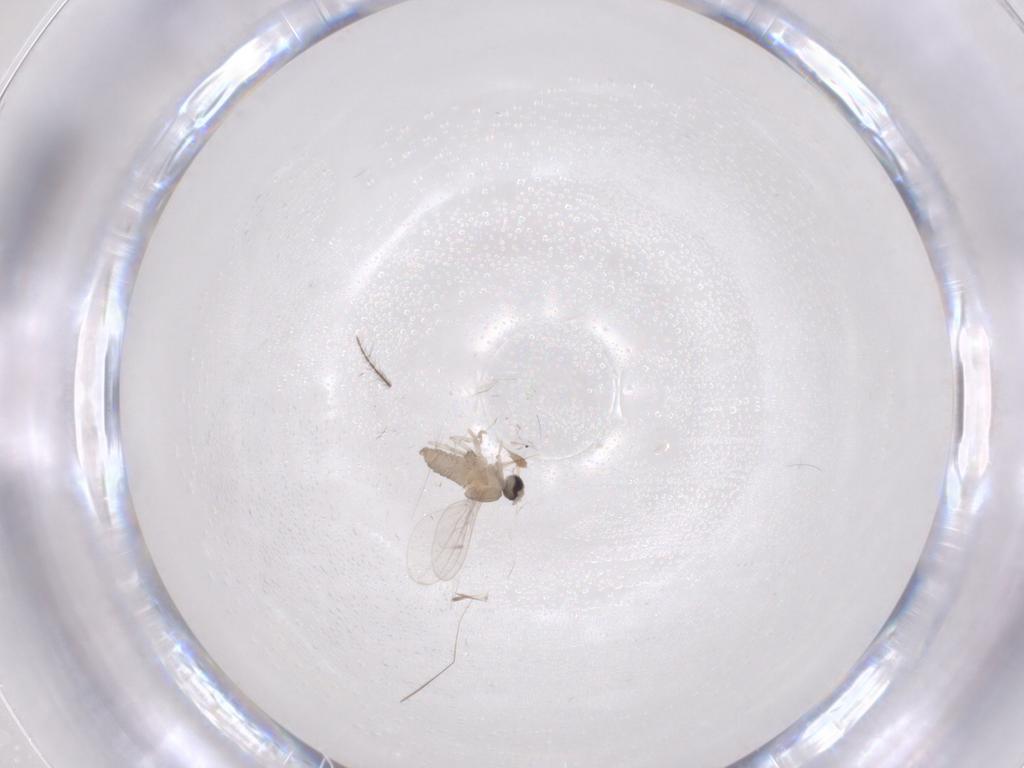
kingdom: Animalia
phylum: Arthropoda
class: Insecta
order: Diptera
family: Cecidomyiidae
